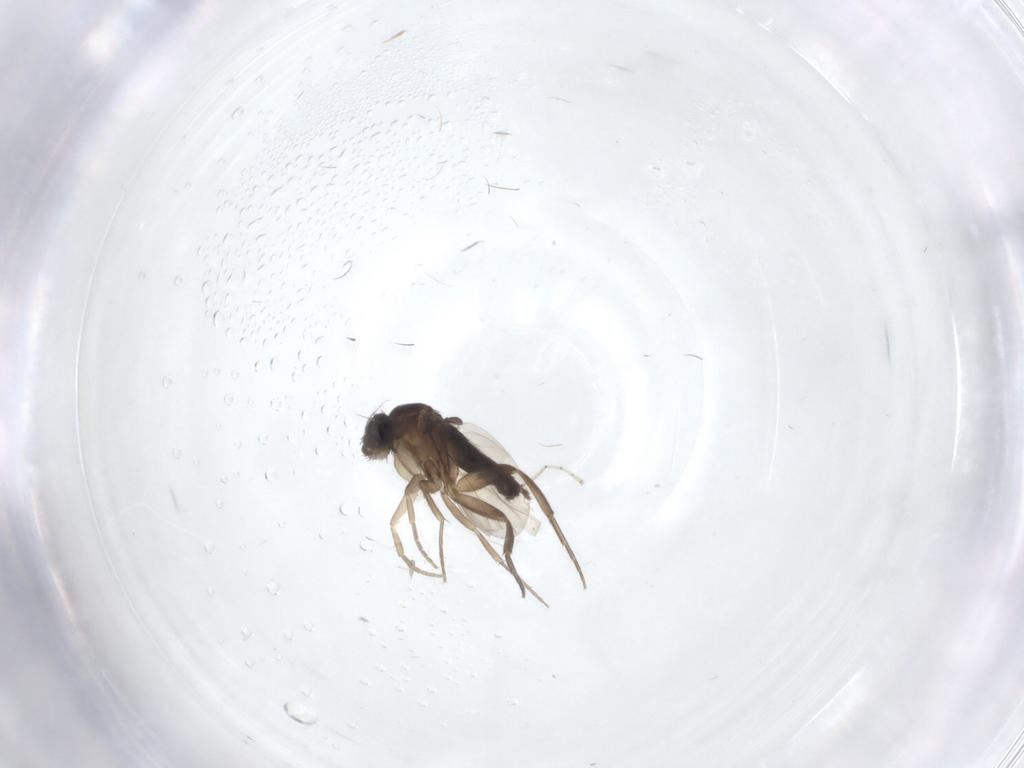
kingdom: Animalia
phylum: Arthropoda
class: Insecta
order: Diptera
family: Phoridae
